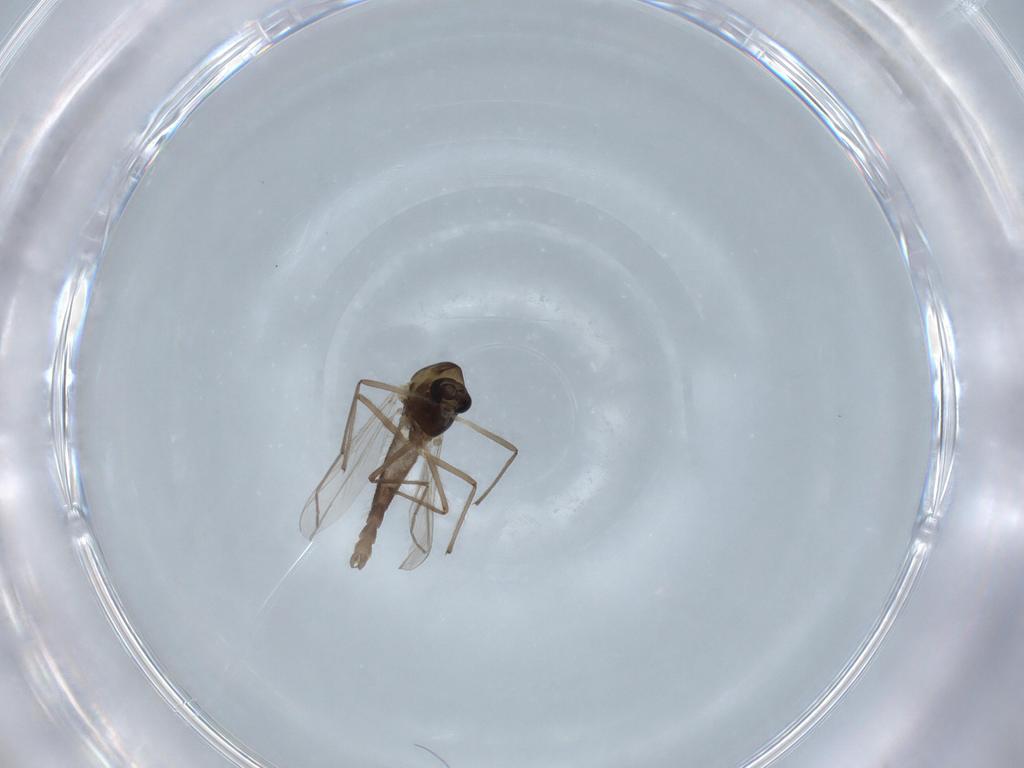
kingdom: Animalia
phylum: Arthropoda
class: Insecta
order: Diptera
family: Chironomidae
